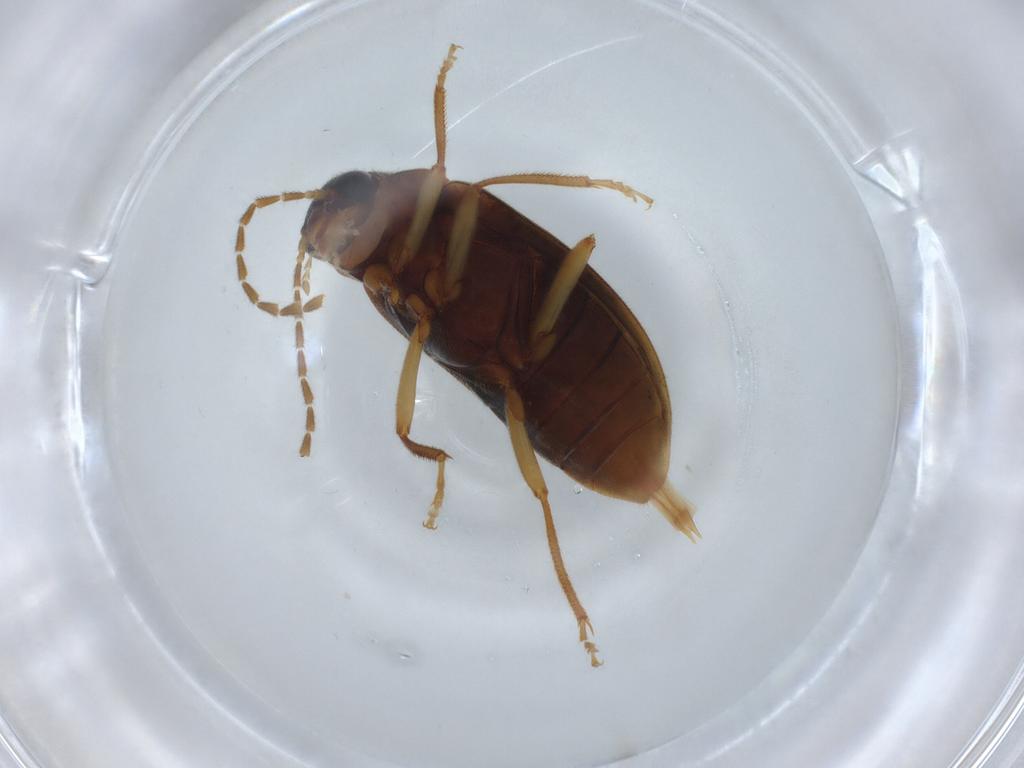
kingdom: Animalia
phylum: Arthropoda
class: Insecta
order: Coleoptera
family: Ptilodactylidae
